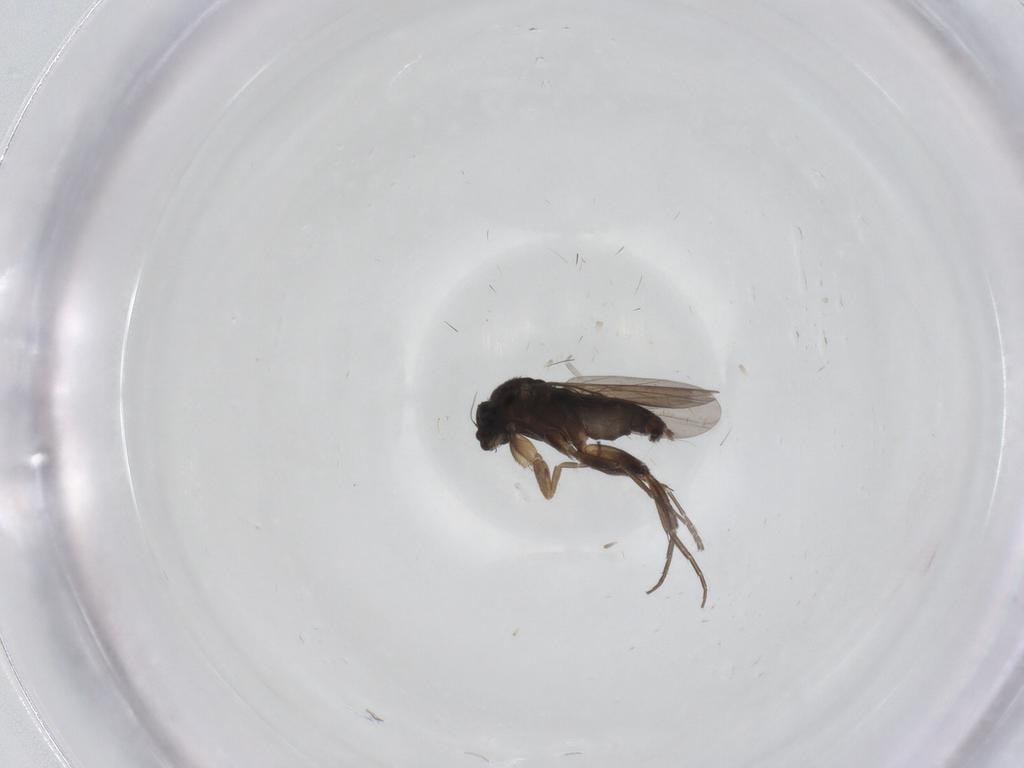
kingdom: Animalia
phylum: Arthropoda
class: Insecta
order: Diptera
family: Phoridae
